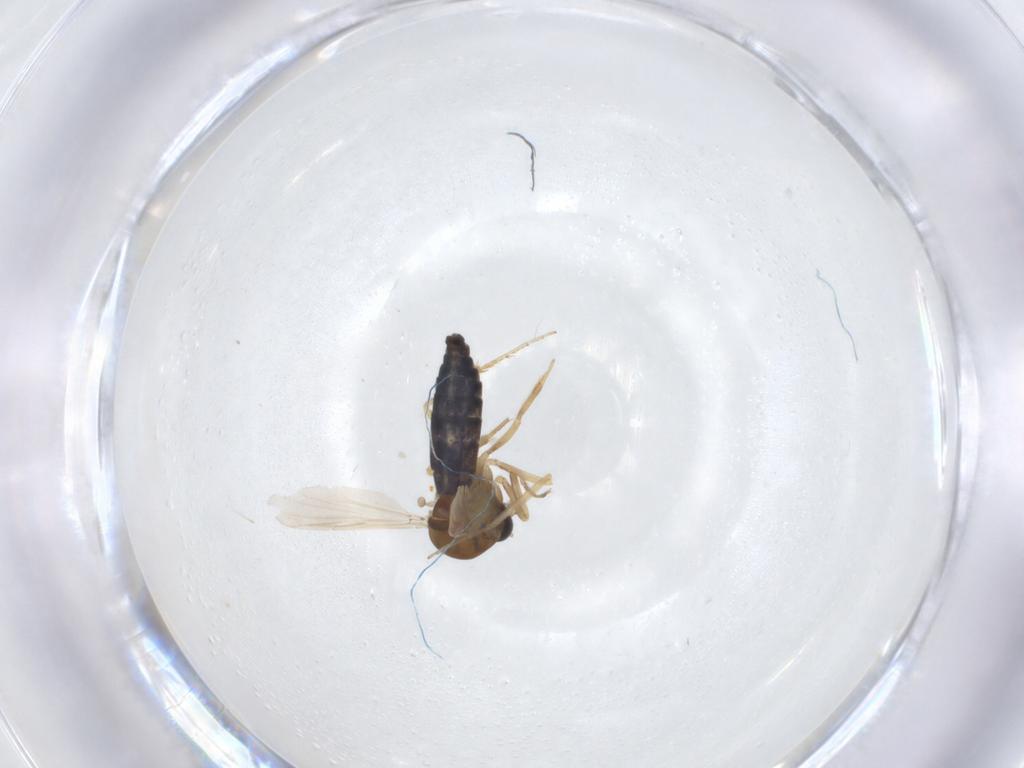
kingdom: Animalia
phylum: Arthropoda
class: Insecta
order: Diptera
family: Ceratopogonidae
